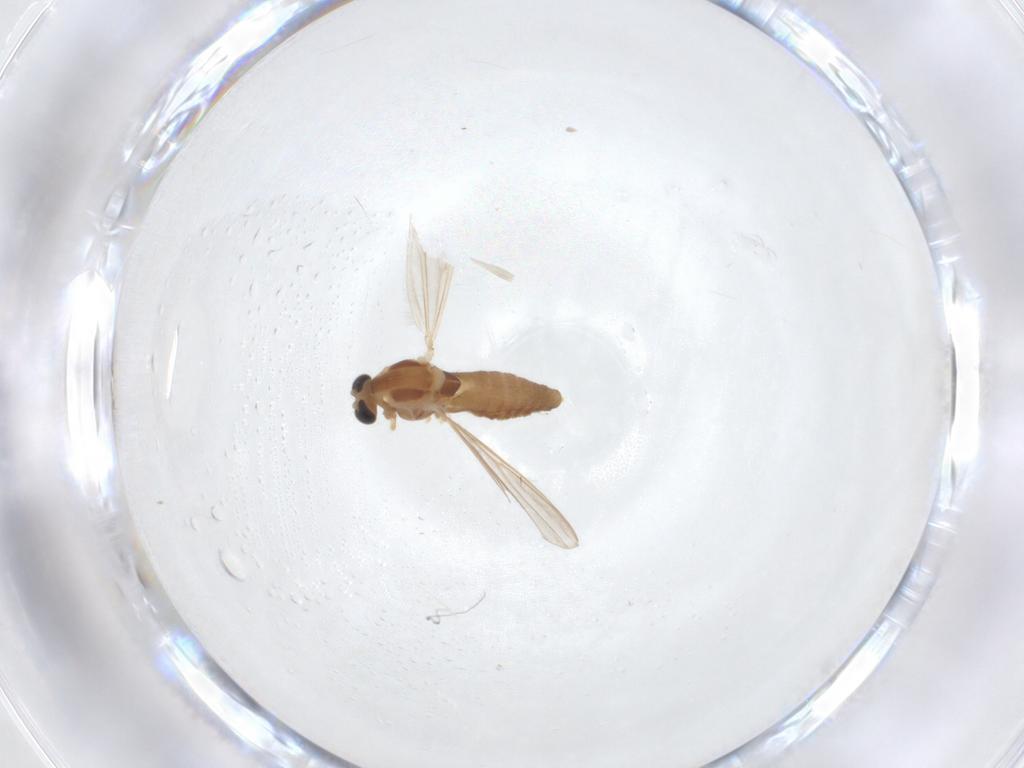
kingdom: Animalia
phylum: Arthropoda
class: Insecta
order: Diptera
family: Chironomidae
